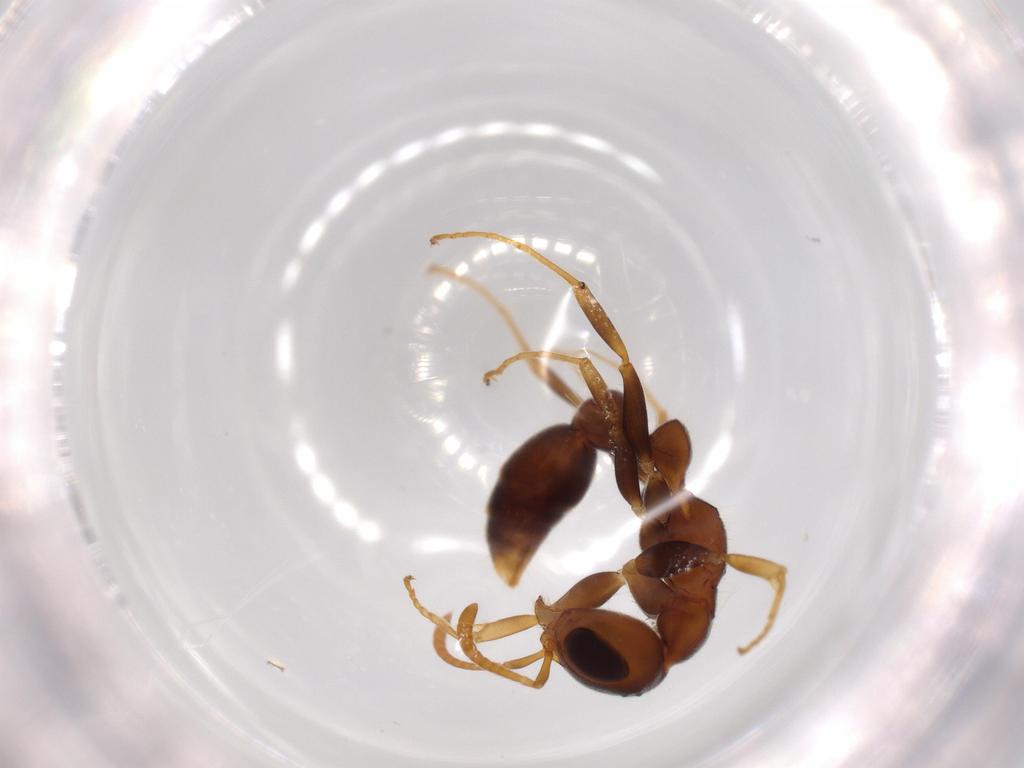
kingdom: Animalia
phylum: Arthropoda
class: Insecta
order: Hymenoptera
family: Formicidae
